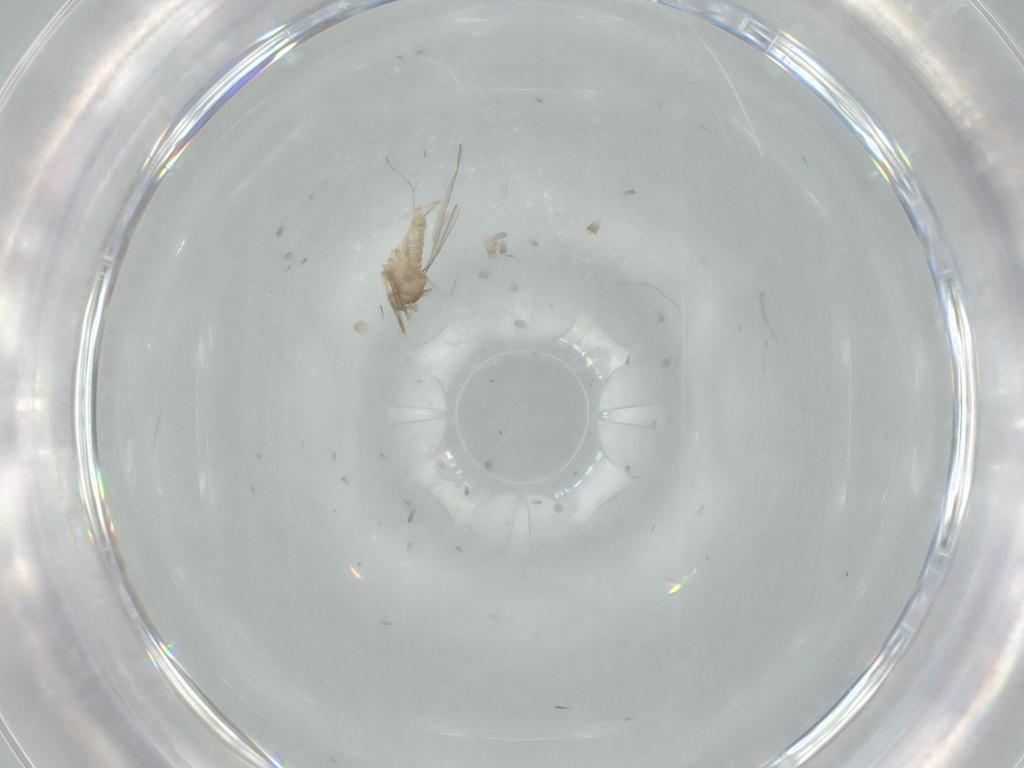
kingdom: Animalia
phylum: Arthropoda
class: Insecta
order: Diptera
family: Cecidomyiidae
